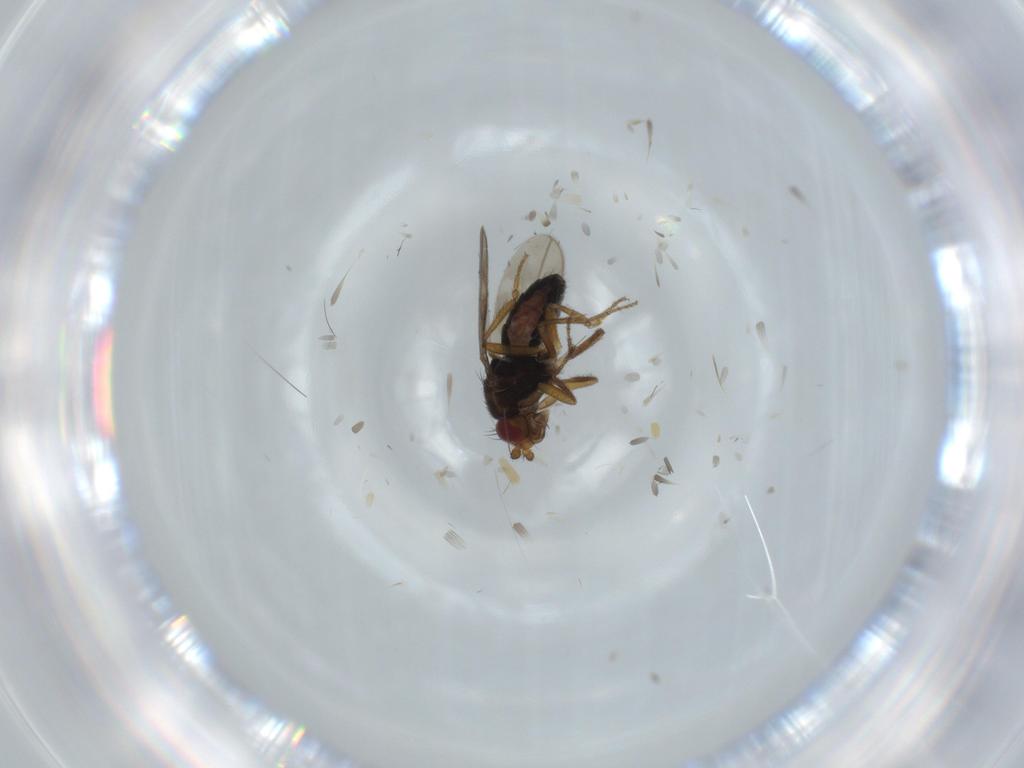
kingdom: Animalia
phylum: Arthropoda
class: Insecta
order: Diptera
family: Sphaeroceridae
